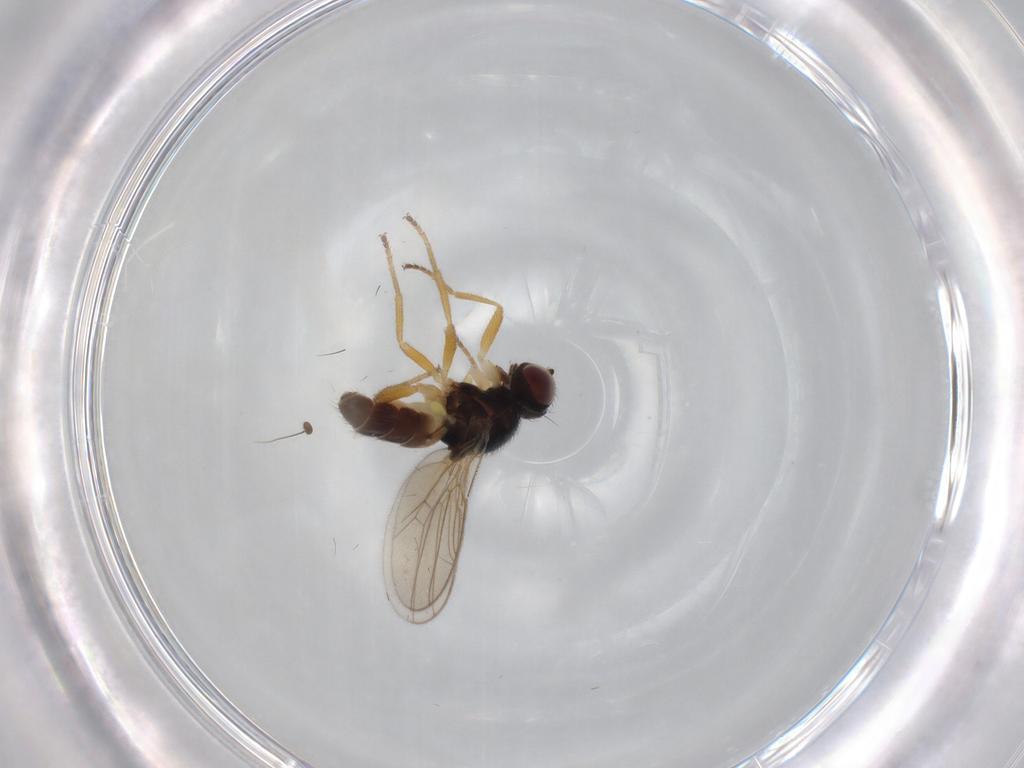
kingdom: Animalia
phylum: Arthropoda
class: Insecta
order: Diptera
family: Chloropidae
